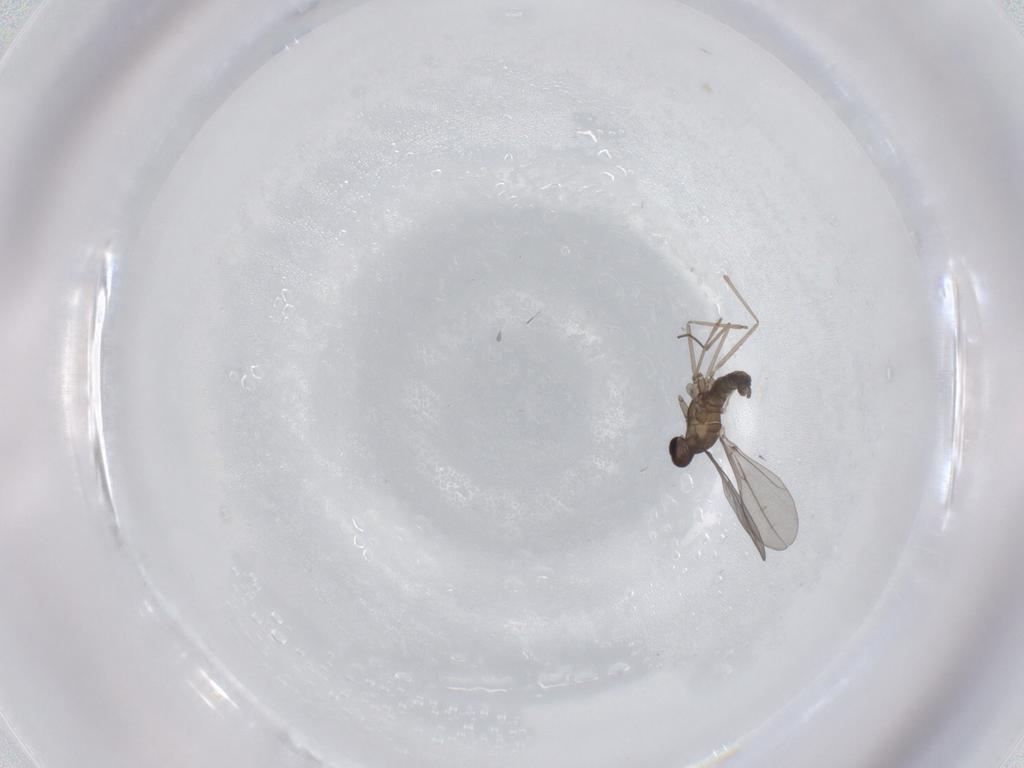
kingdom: Animalia
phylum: Arthropoda
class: Insecta
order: Diptera
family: Cecidomyiidae
